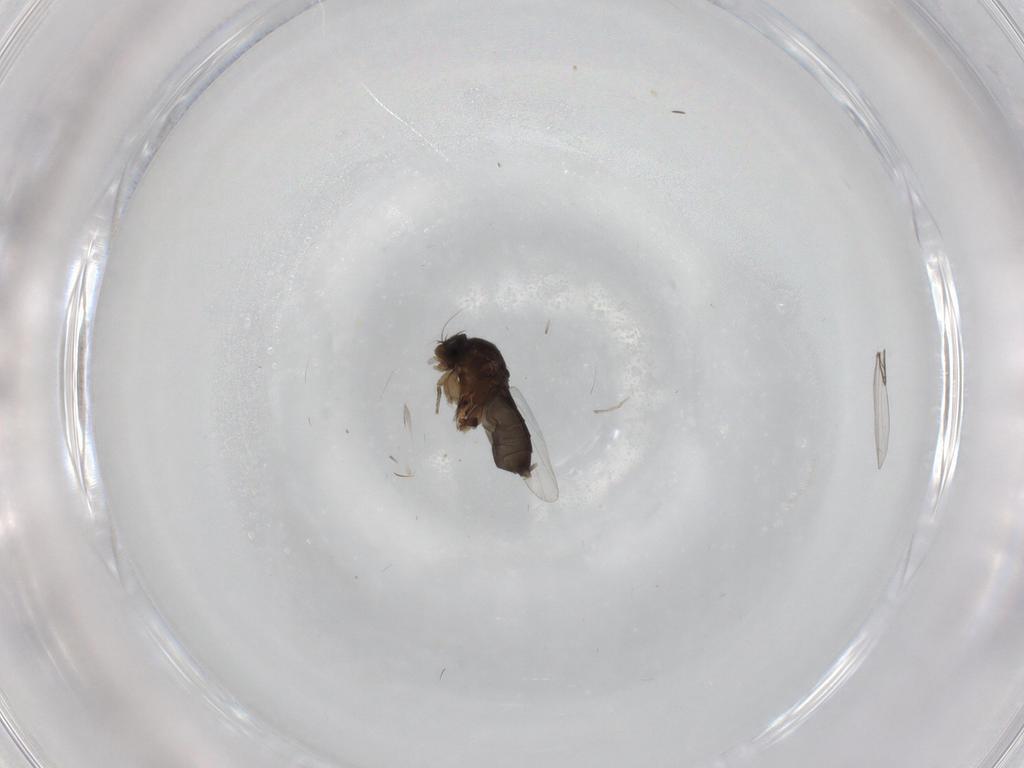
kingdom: Animalia
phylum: Arthropoda
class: Insecta
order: Diptera
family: Phoridae
